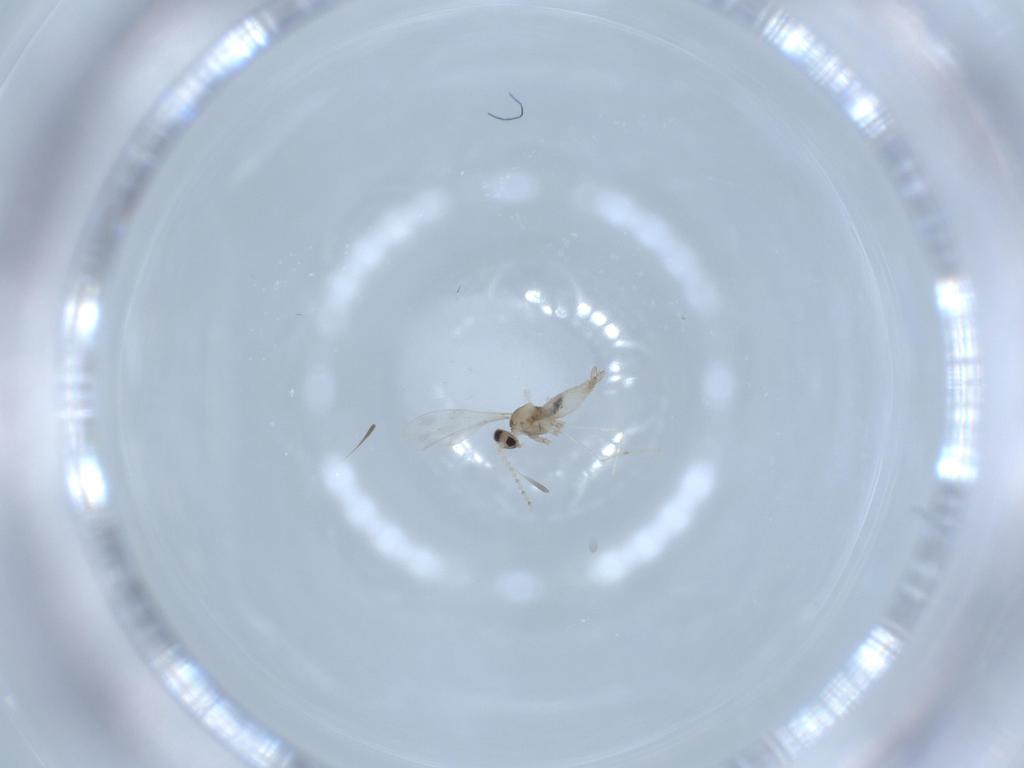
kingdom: Animalia
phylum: Arthropoda
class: Insecta
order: Diptera
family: Cecidomyiidae
